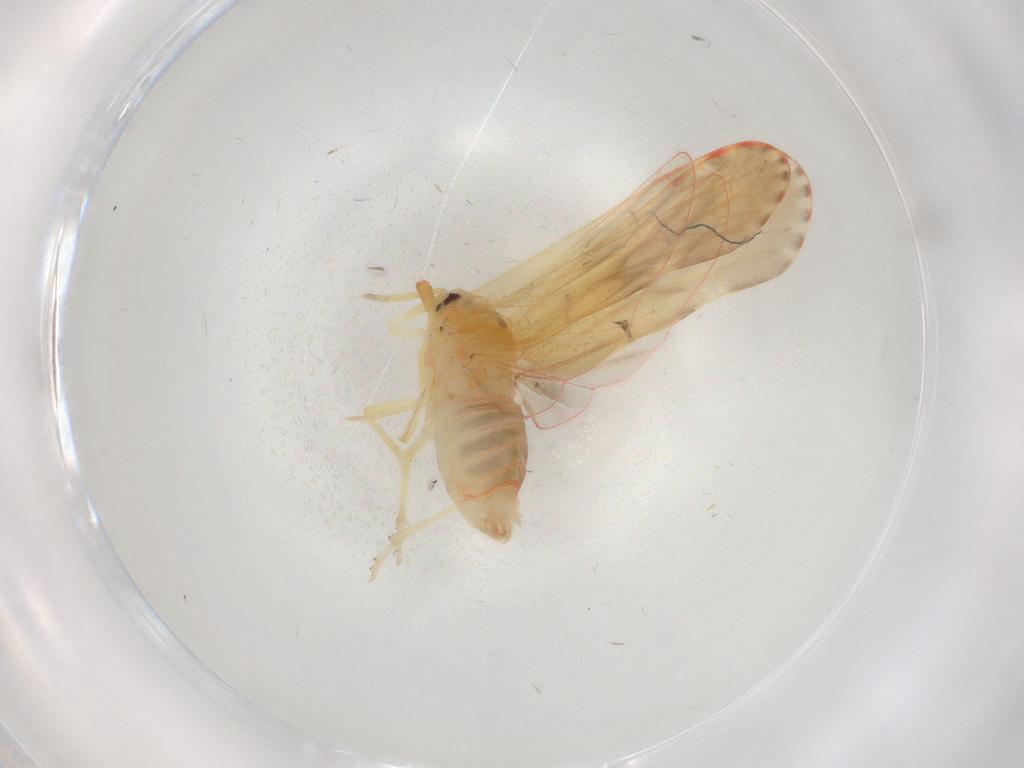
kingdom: Animalia
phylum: Arthropoda
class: Insecta
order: Hemiptera
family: Derbidae
